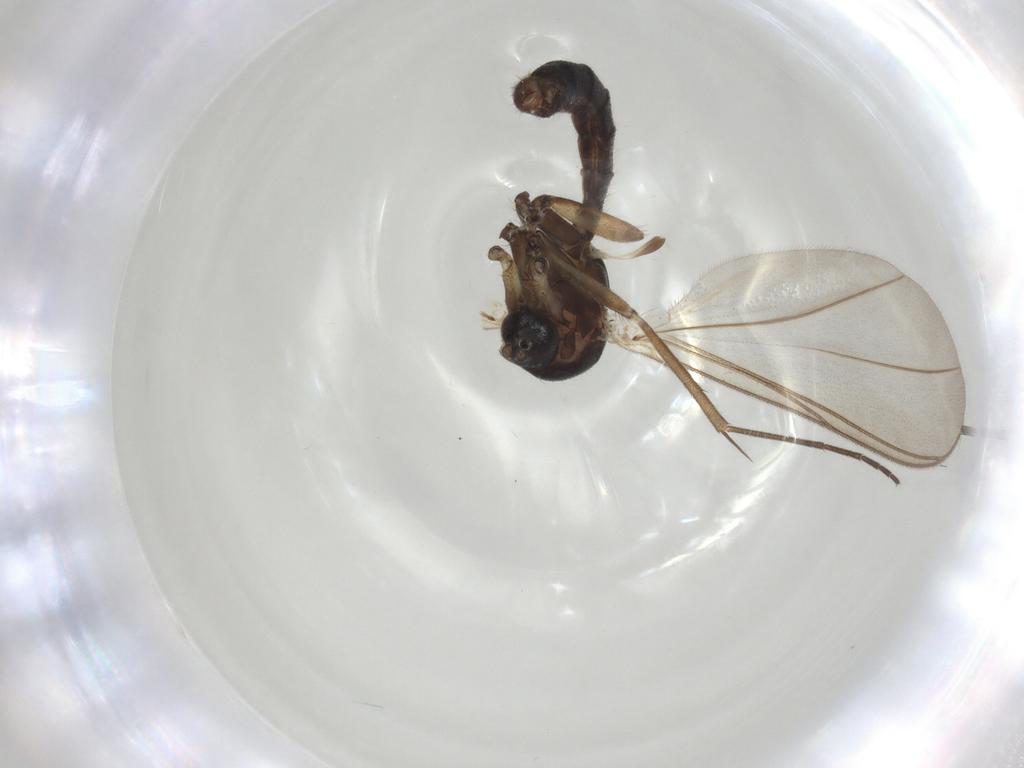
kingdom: Animalia
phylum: Arthropoda
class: Insecta
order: Diptera
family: Mycetophilidae
